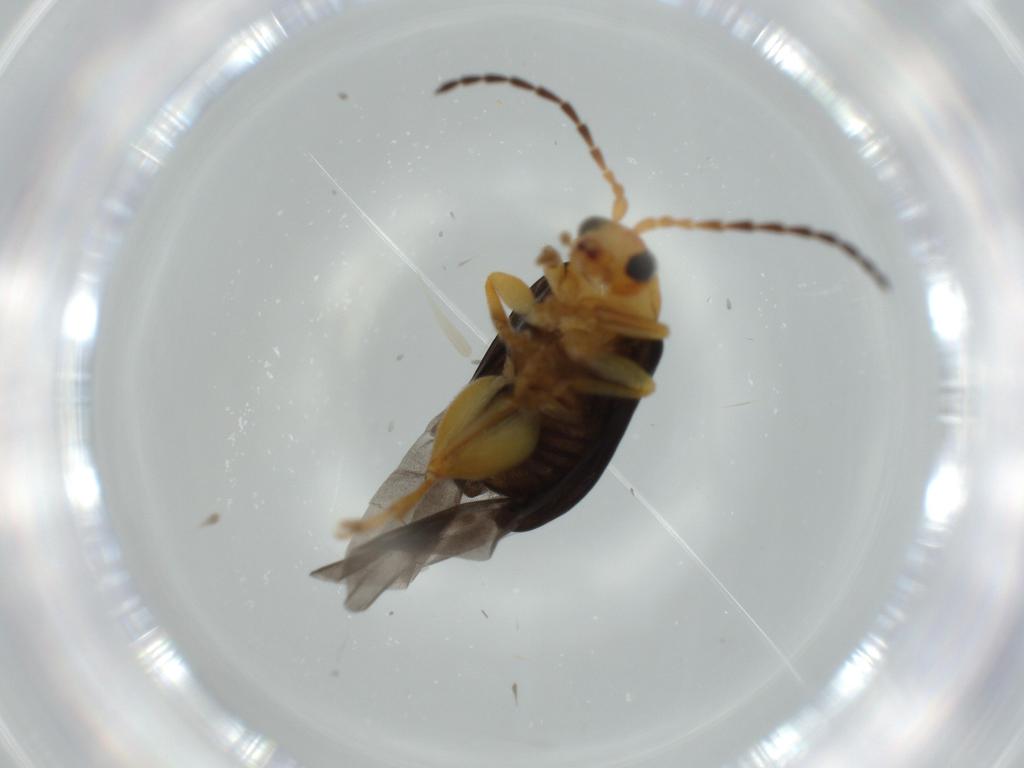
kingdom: Animalia
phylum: Arthropoda
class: Insecta
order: Coleoptera
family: Chrysomelidae
